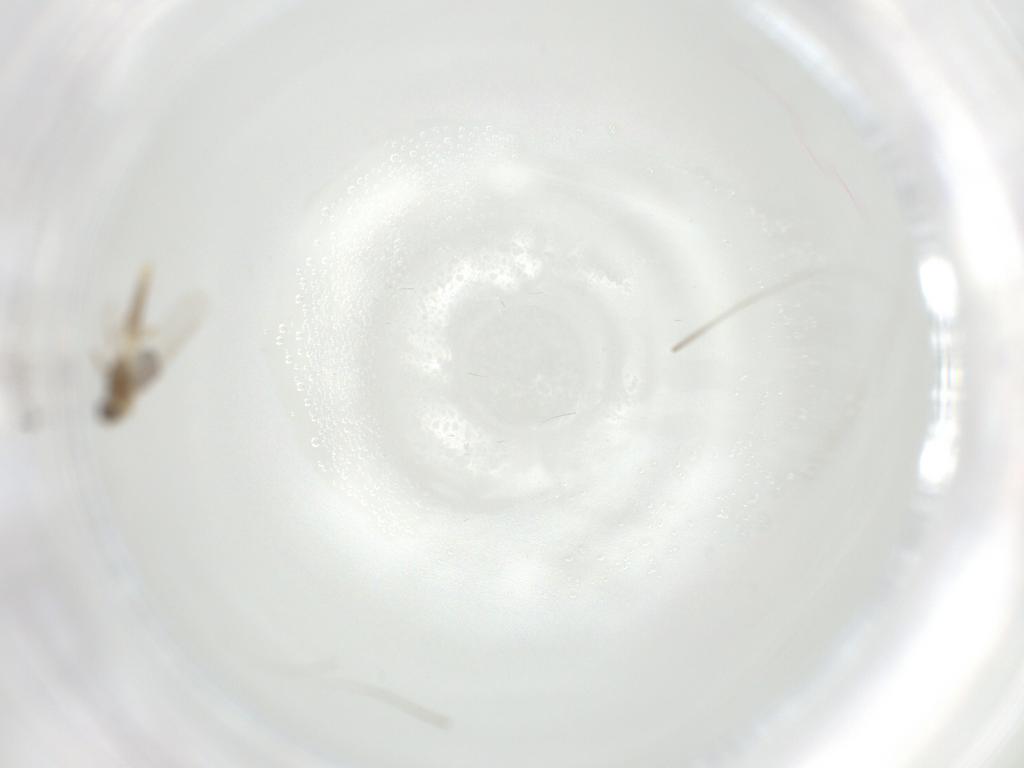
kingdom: Animalia
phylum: Arthropoda
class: Insecta
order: Diptera
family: Chironomidae
